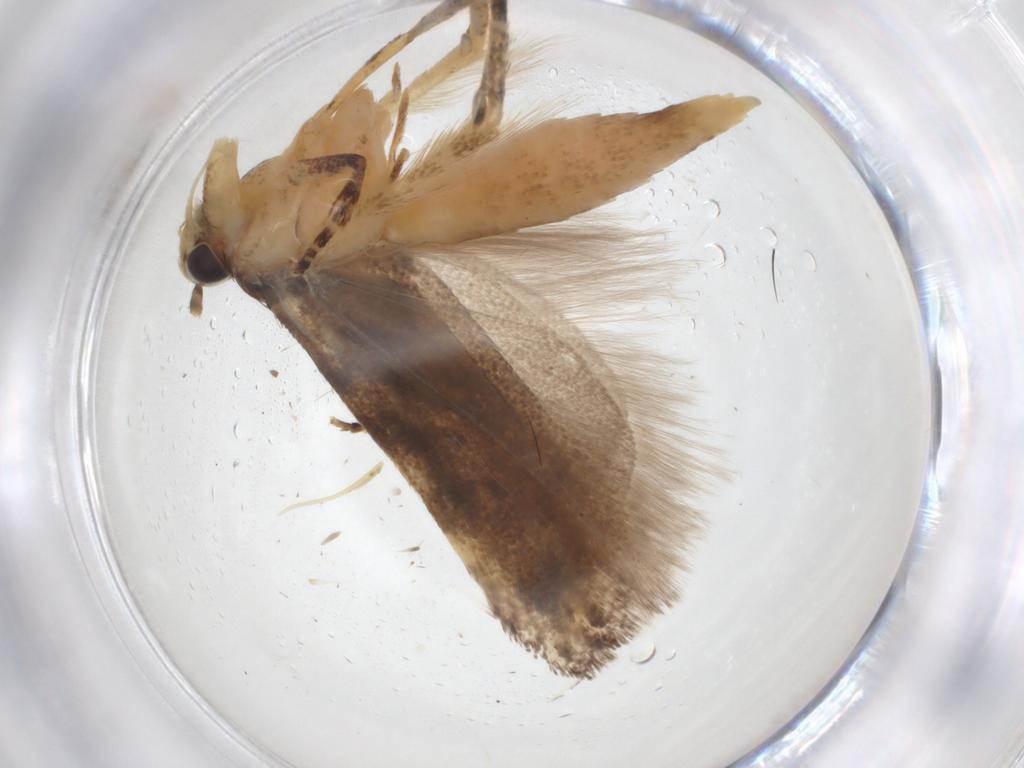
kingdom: Animalia
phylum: Arthropoda
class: Insecta
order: Lepidoptera
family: Gelechiidae
